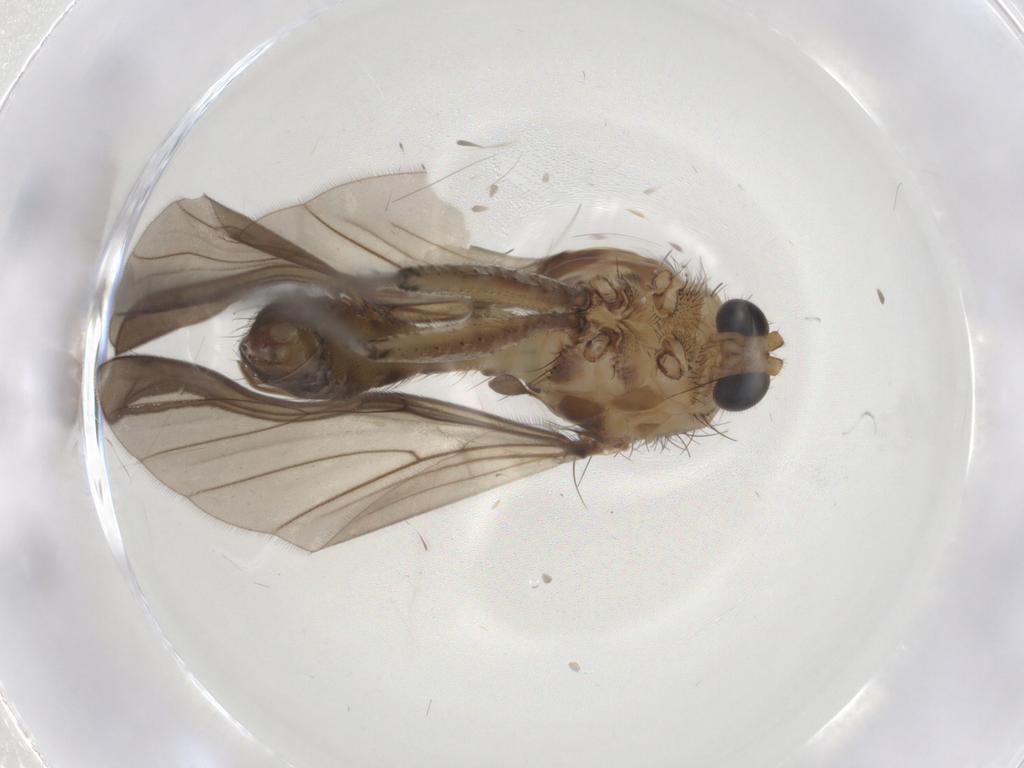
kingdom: Animalia
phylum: Arthropoda
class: Insecta
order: Diptera
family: Sciaridae
